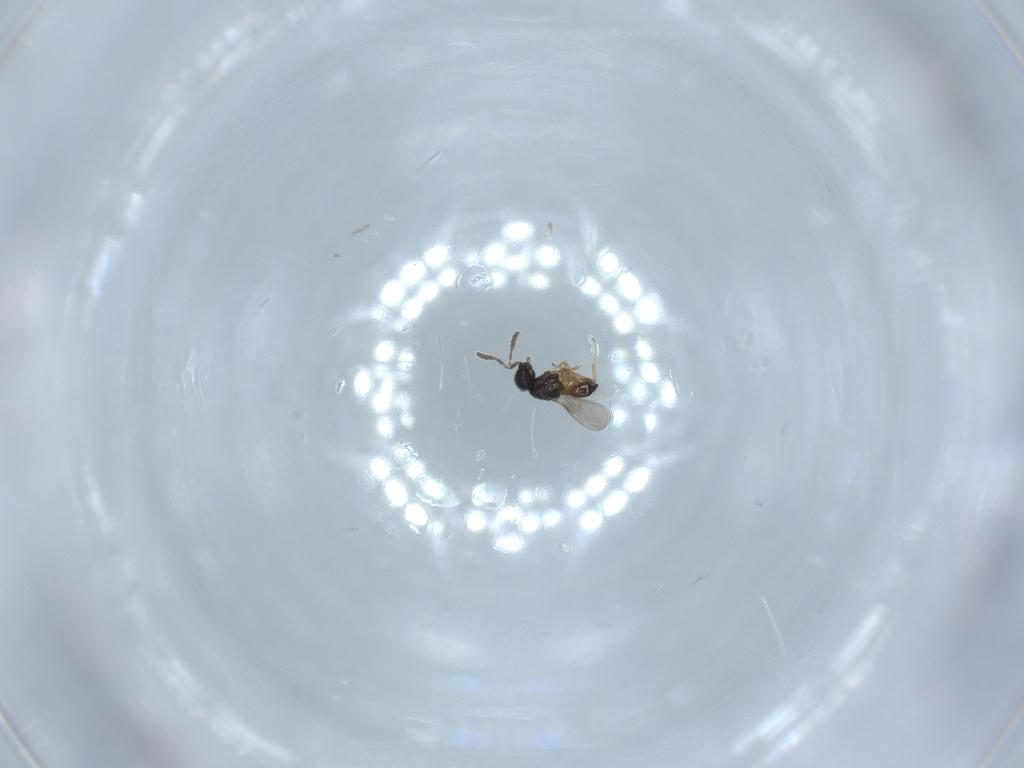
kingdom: Animalia
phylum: Arthropoda
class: Insecta
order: Hymenoptera
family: Scelionidae
